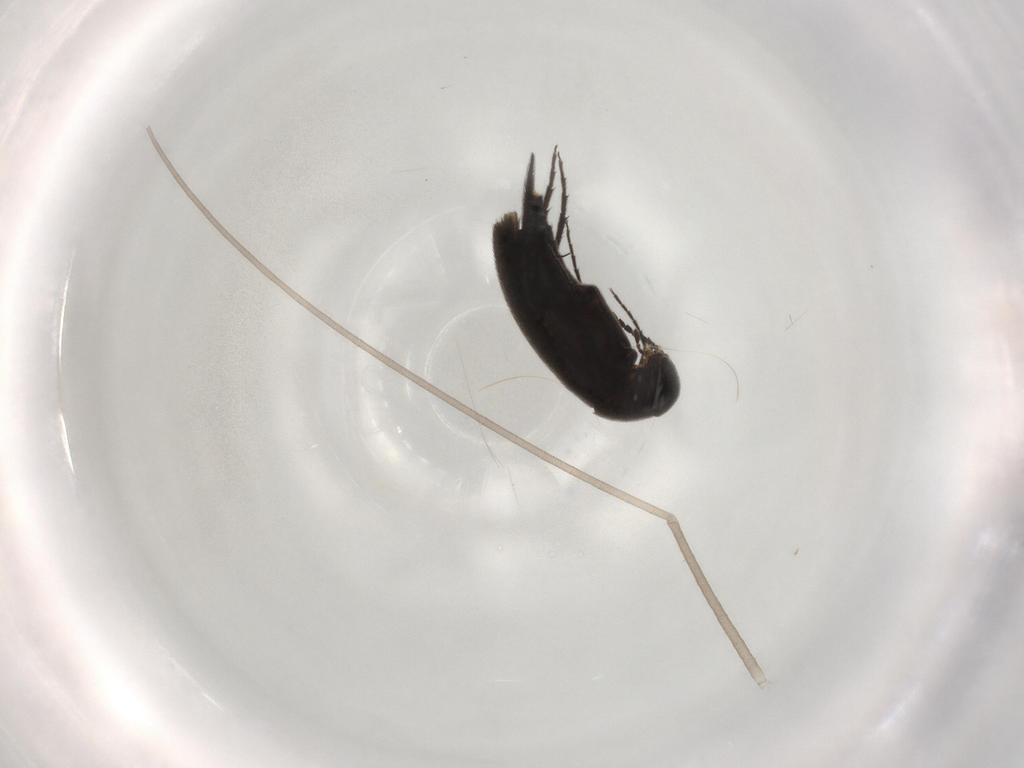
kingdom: Animalia
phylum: Arthropoda
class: Insecta
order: Coleoptera
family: Mordellidae
